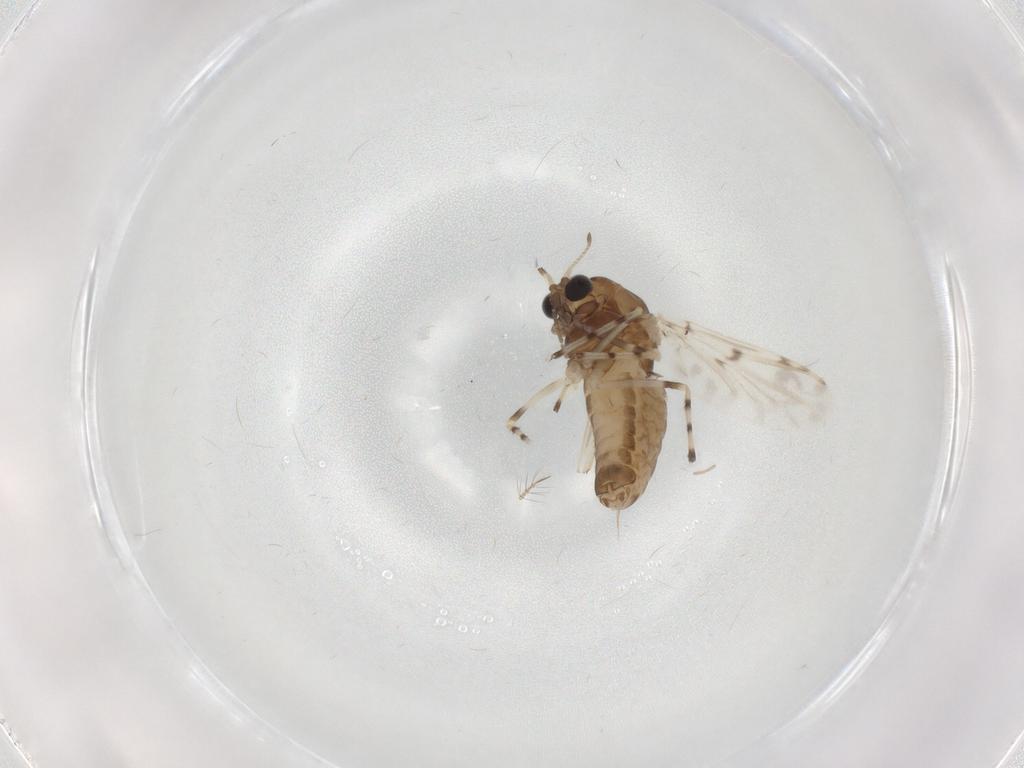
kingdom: Animalia
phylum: Arthropoda
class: Insecta
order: Diptera
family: Chironomidae
